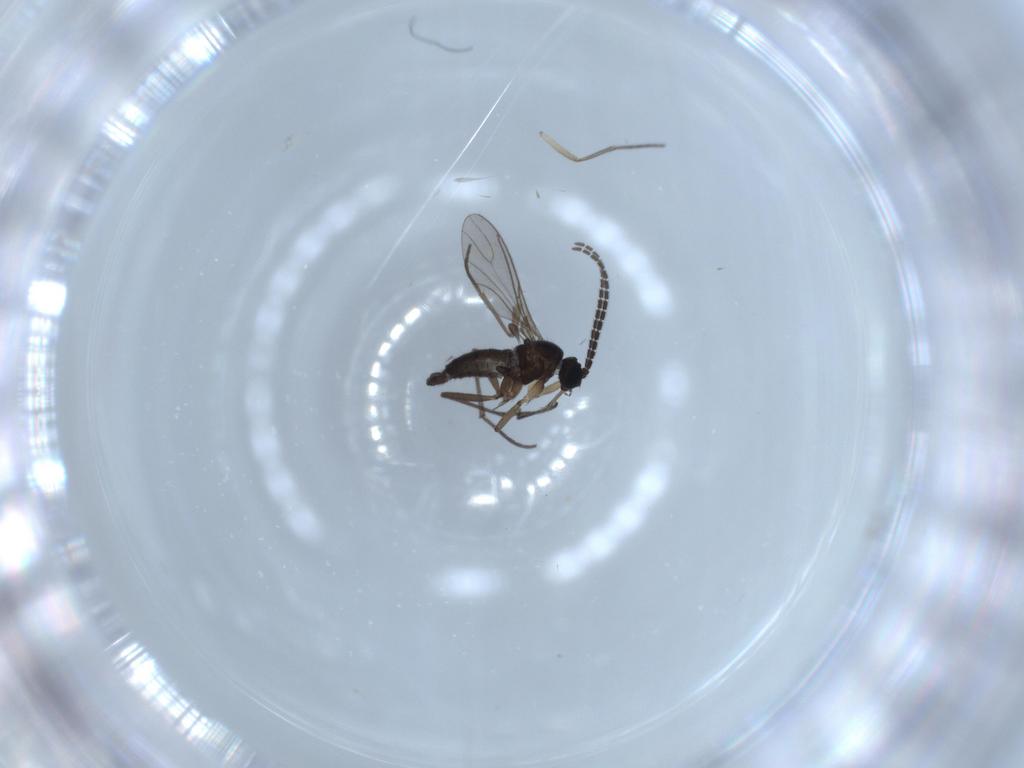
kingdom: Animalia
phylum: Arthropoda
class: Insecta
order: Diptera
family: Sciaridae
